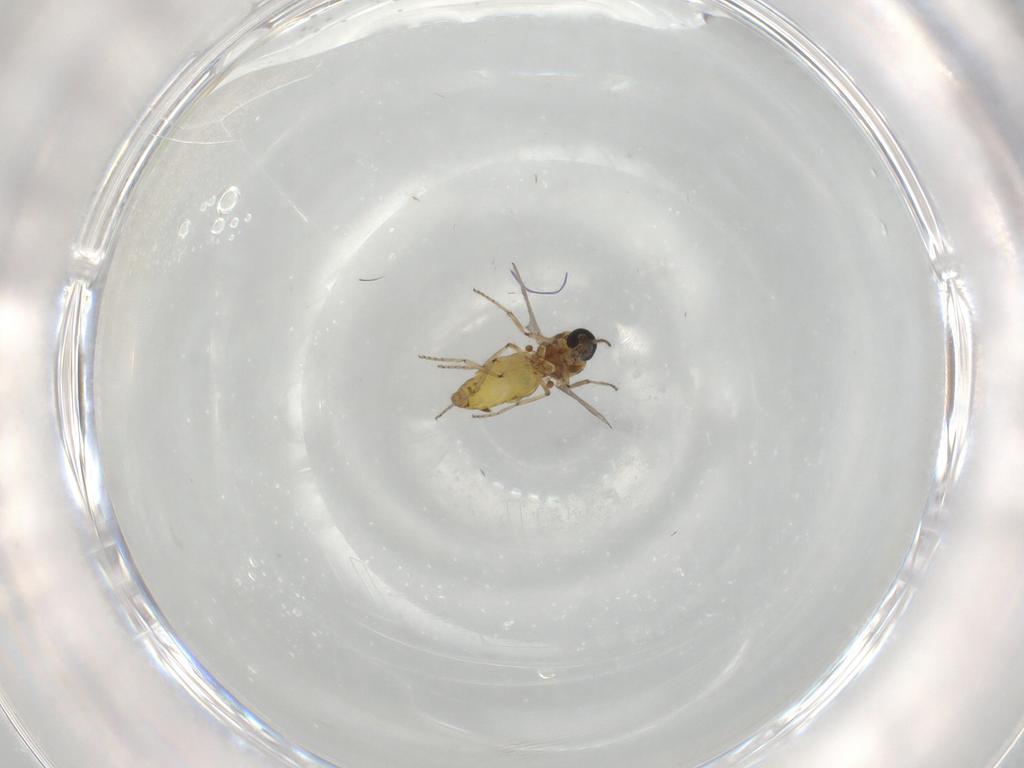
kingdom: Animalia
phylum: Arthropoda
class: Insecta
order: Diptera
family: Ceratopogonidae
